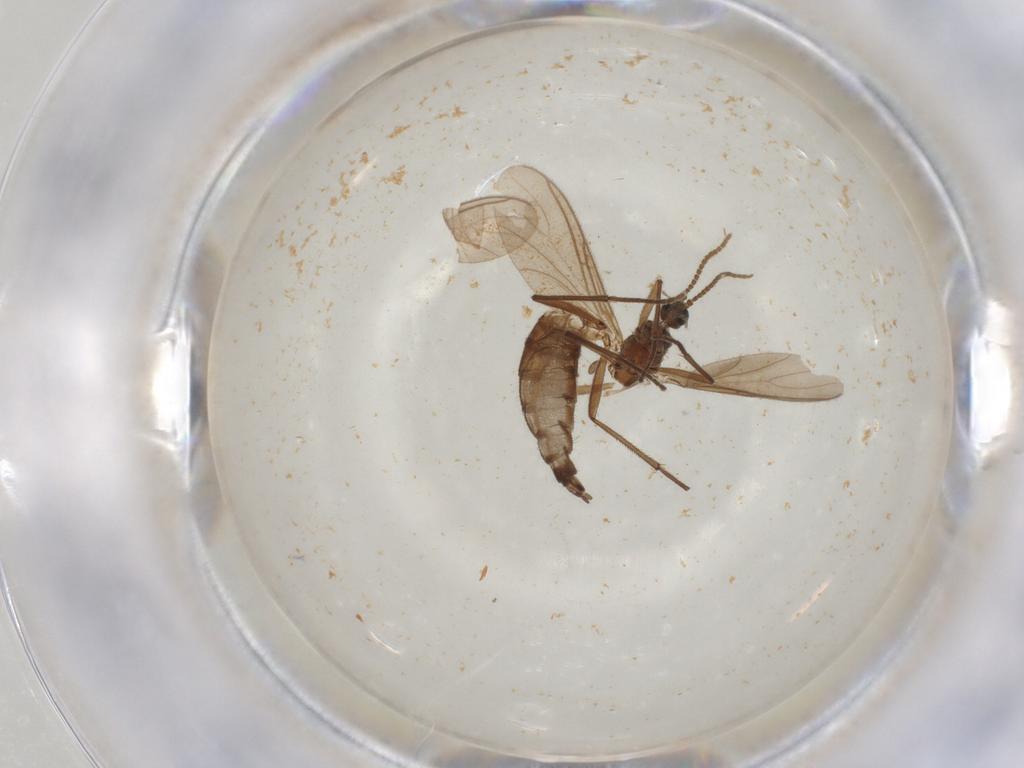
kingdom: Animalia
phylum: Arthropoda
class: Insecta
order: Diptera
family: Sciaridae
